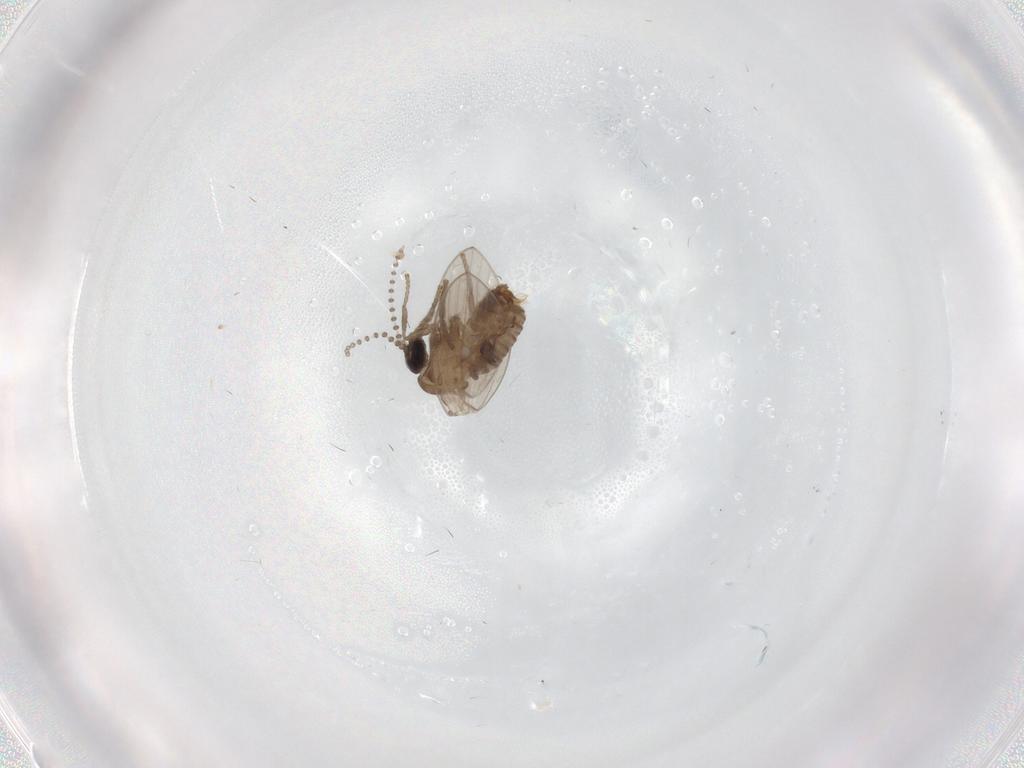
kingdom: Animalia
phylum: Arthropoda
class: Insecta
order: Diptera
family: Psychodidae
